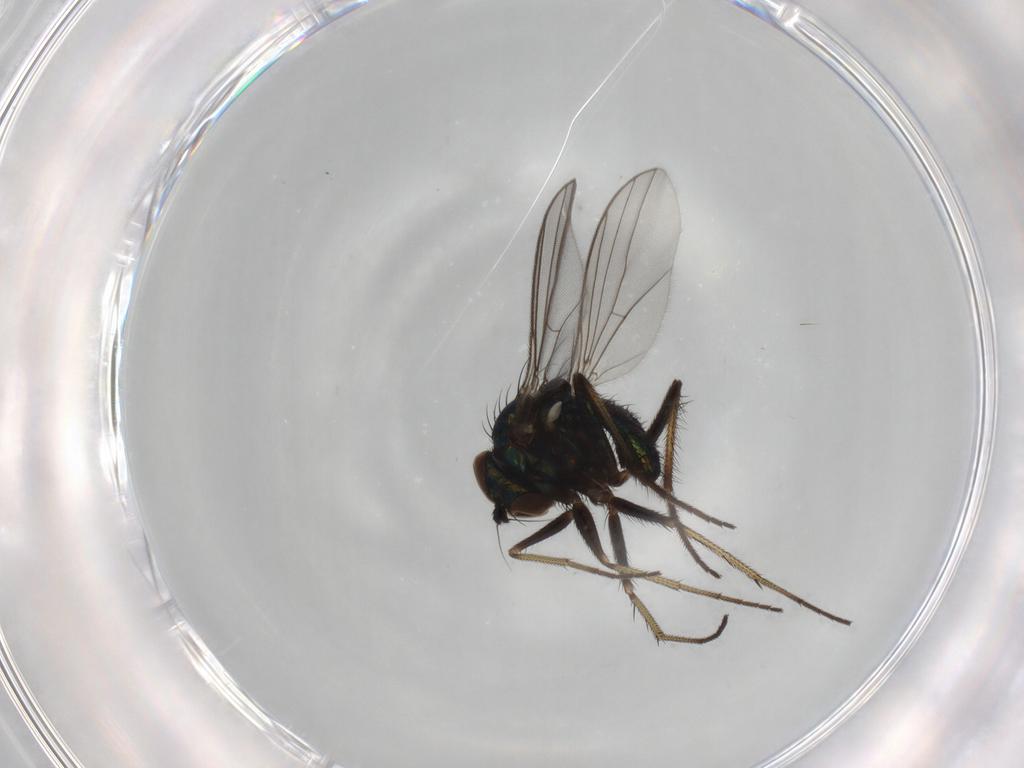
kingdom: Animalia
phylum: Arthropoda
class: Insecta
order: Diptera
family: Dolichopodidae
